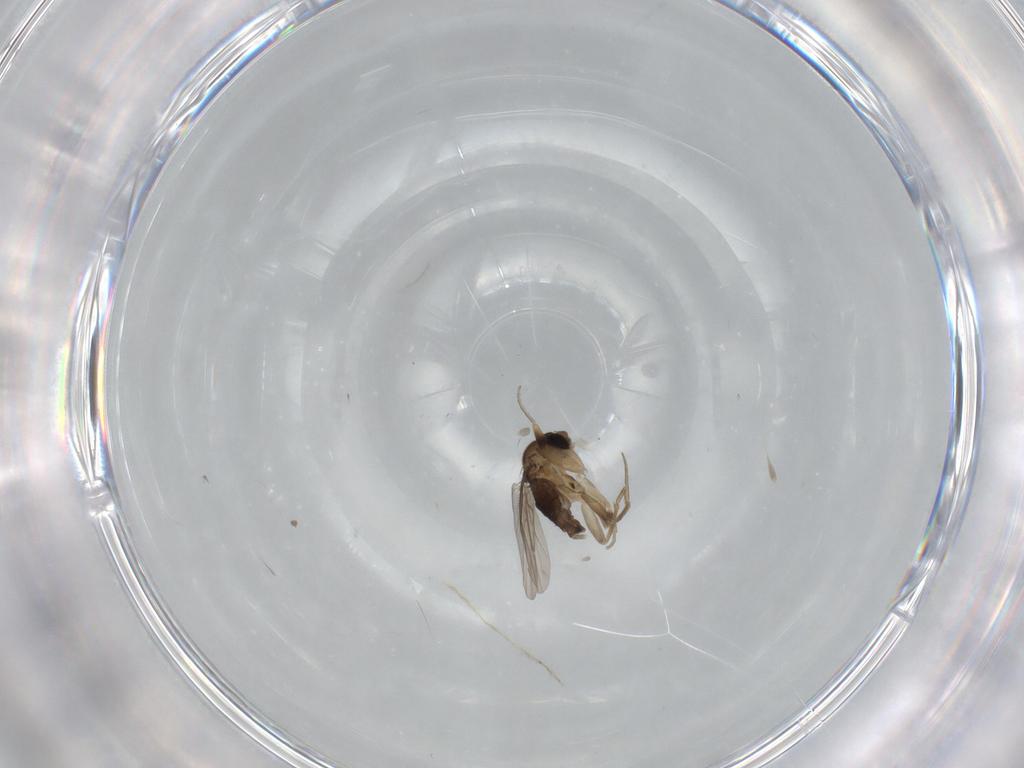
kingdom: Animalia
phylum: Arthropoda
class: Insecta
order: Diptera
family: Phoridae
